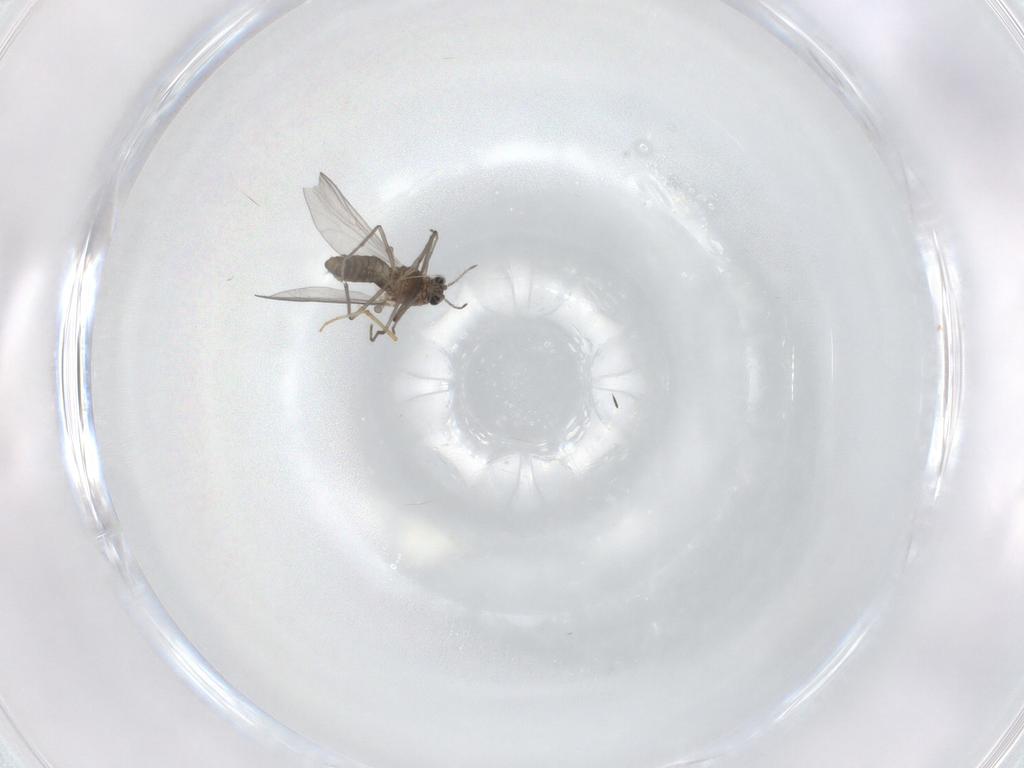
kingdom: Animalia
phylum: Arthropoda
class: Insecta
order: Diptera
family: Chironomidae
